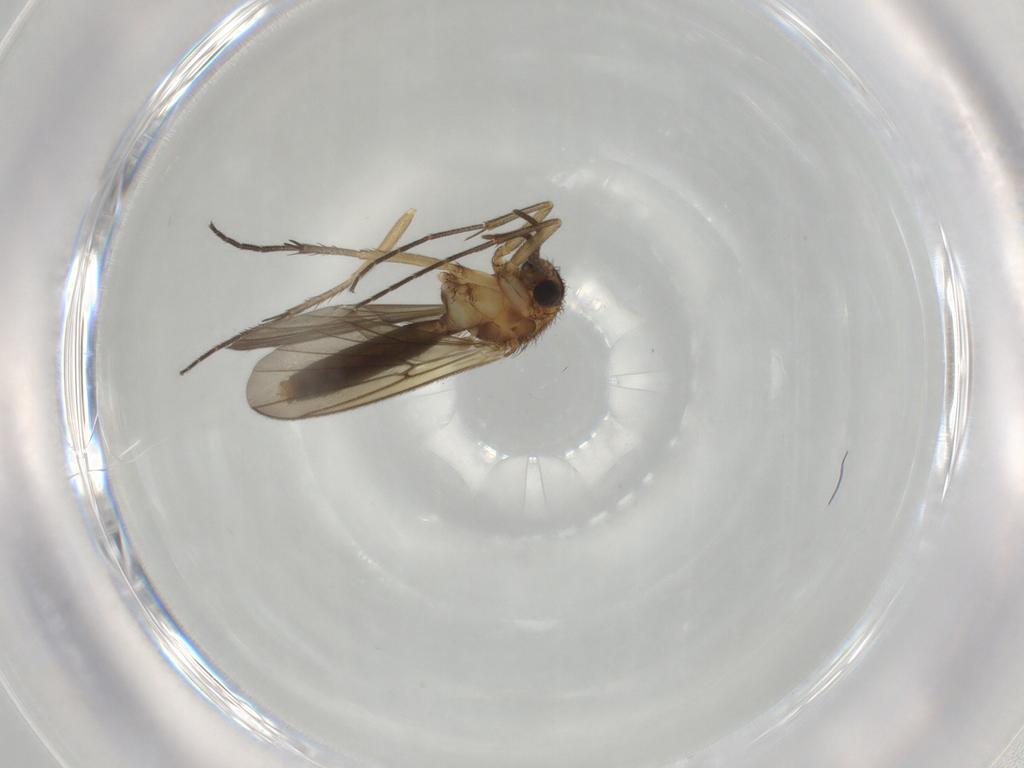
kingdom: Animalia
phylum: Arthropoda
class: Insecta
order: Diptera
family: Mycetophilidae
